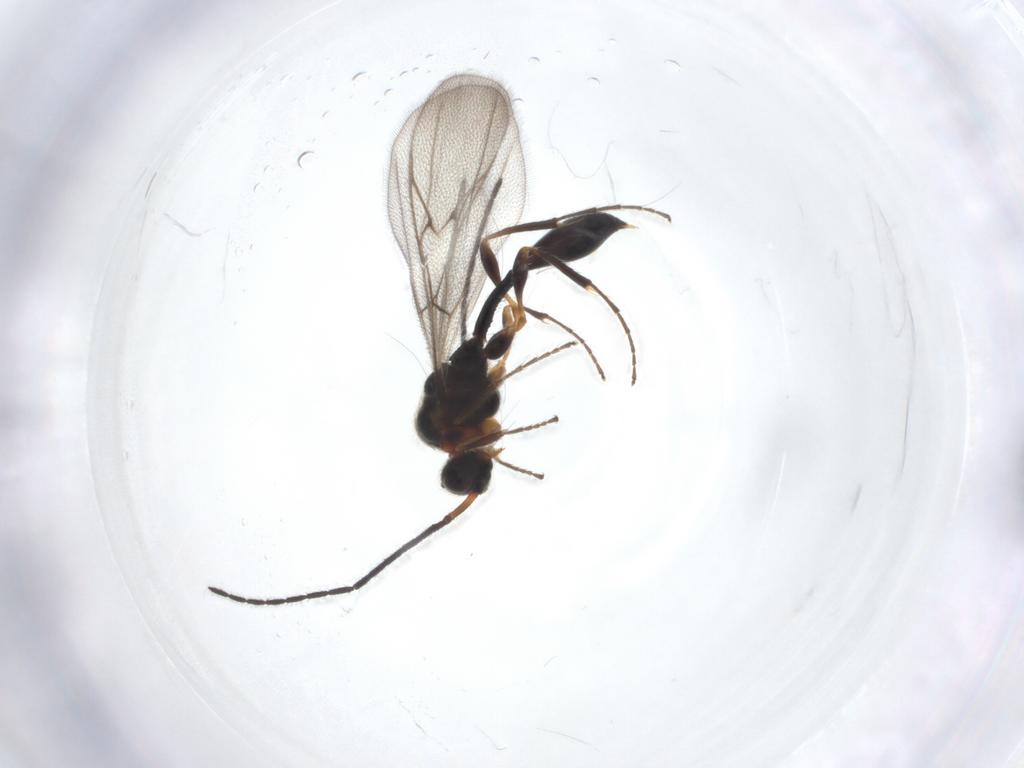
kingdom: Animalia
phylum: Arthropoda
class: Insecta
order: Hymenoptera
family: Diapriidae
